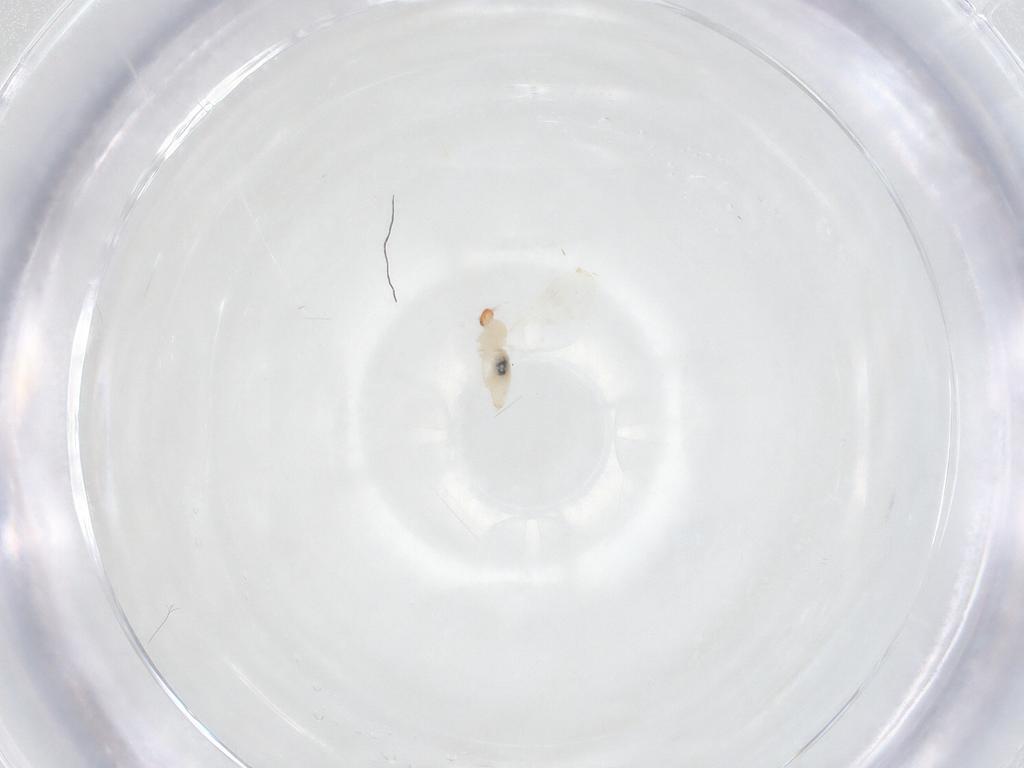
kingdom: Animalia
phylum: Arthropoda
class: Insecta
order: Diptera
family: Cecidomyiidae
